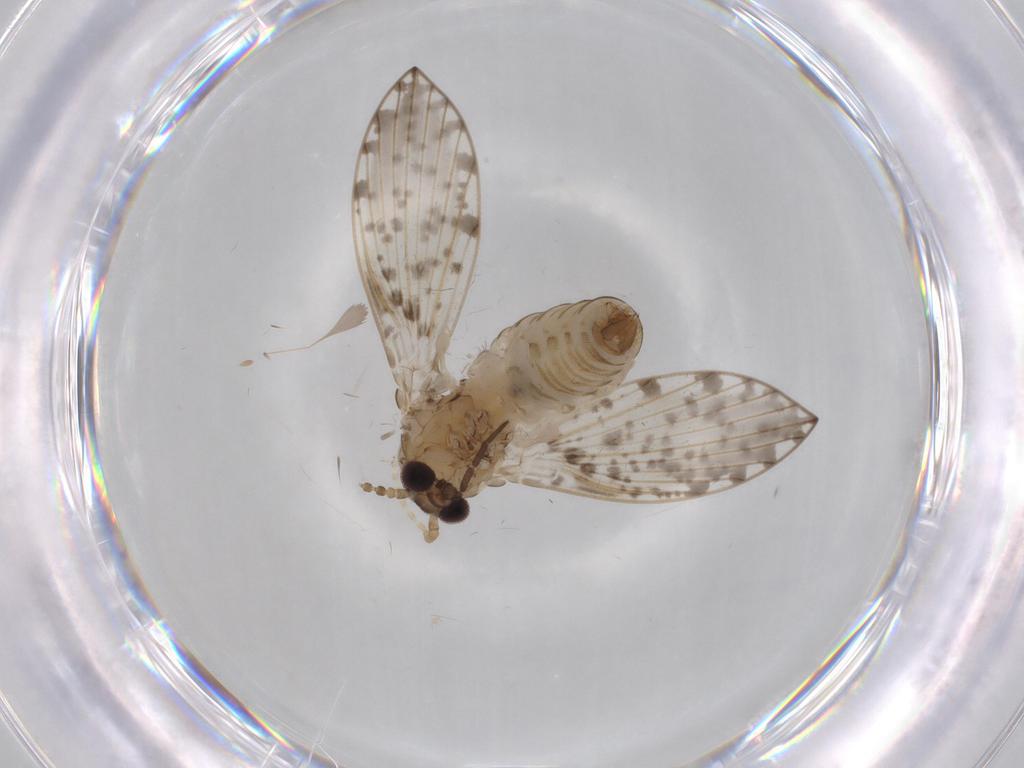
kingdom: Animalia
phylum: Arthropoda
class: Insecta
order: Diptera
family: Psychodidae
